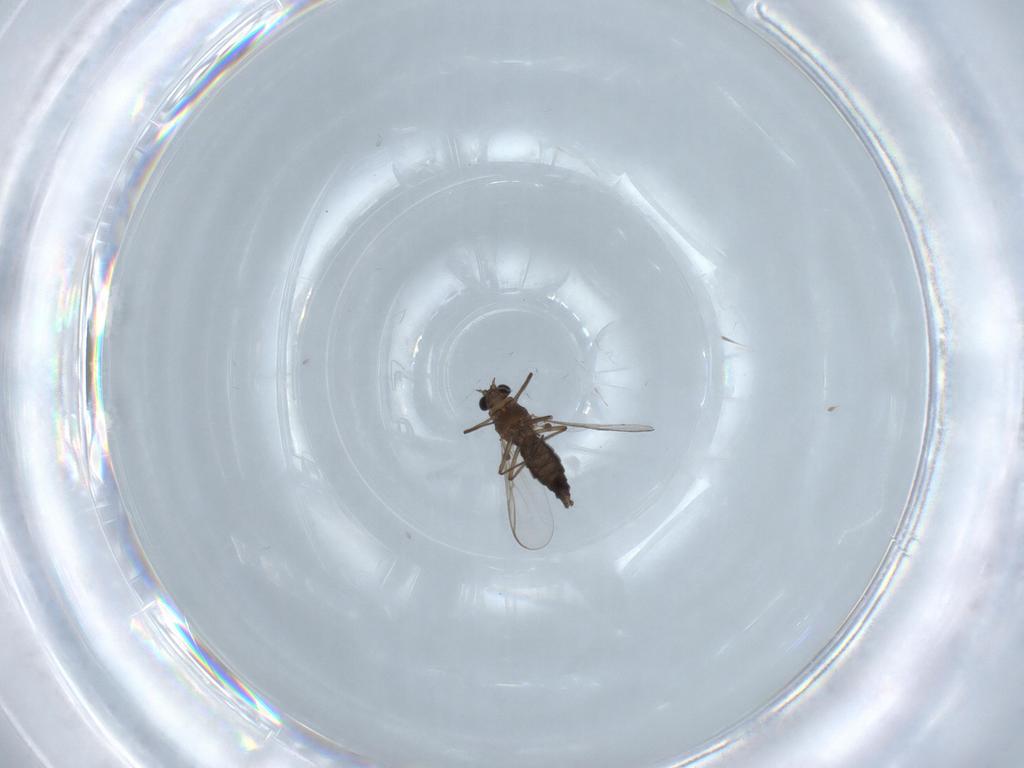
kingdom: Animalia
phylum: Arthropoda
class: Insecta
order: Diptera
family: Chironomidae
